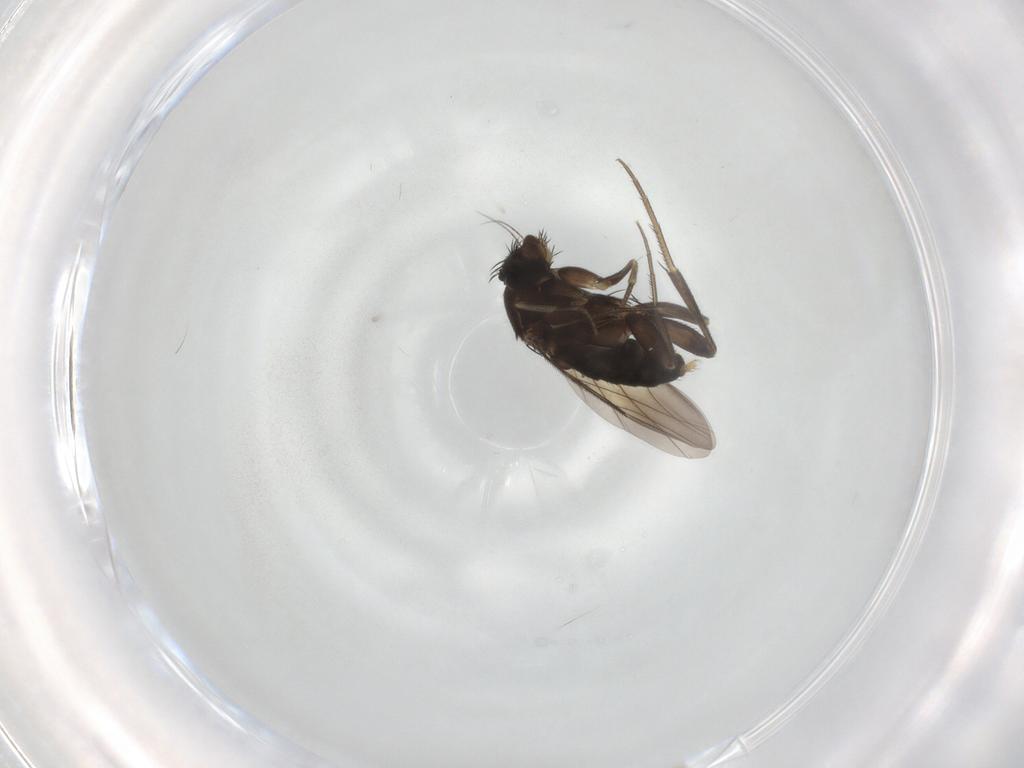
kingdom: Animalia
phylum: Arthropoda
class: Insecta
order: Diptera
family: Phoridae
